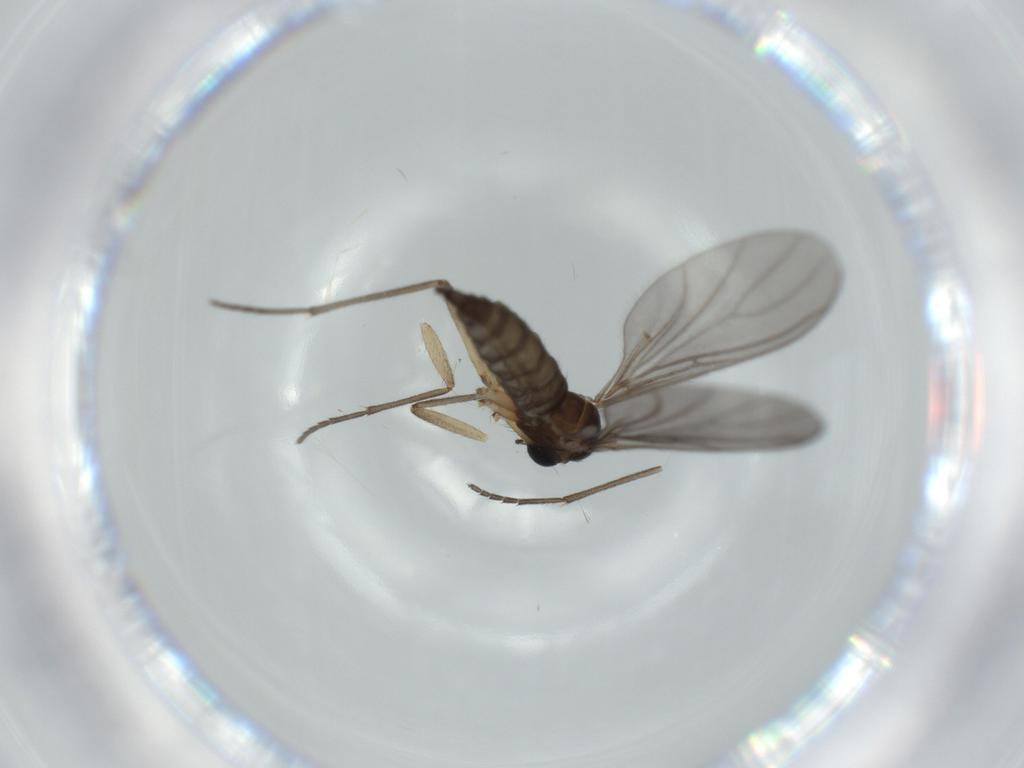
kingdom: Animalia
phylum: Arthropoda
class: Insecta
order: Diptera
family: Sciaridae
